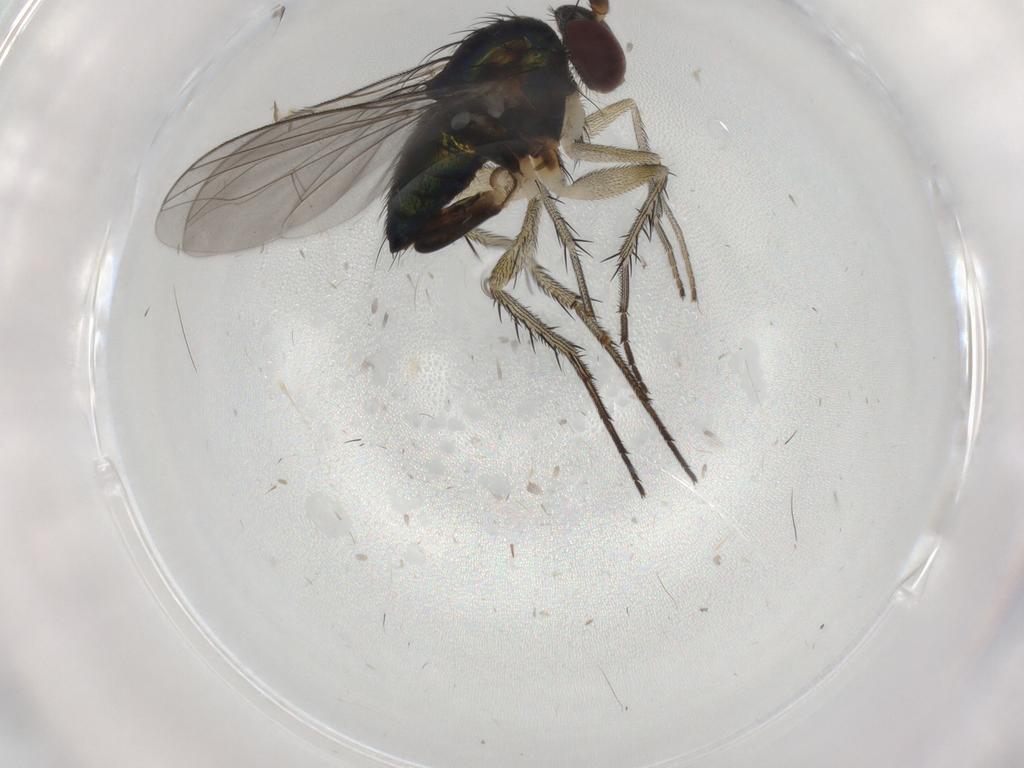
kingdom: Animalia
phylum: Arthropoda
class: Insecta
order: Diptera
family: Dolichopodidae
